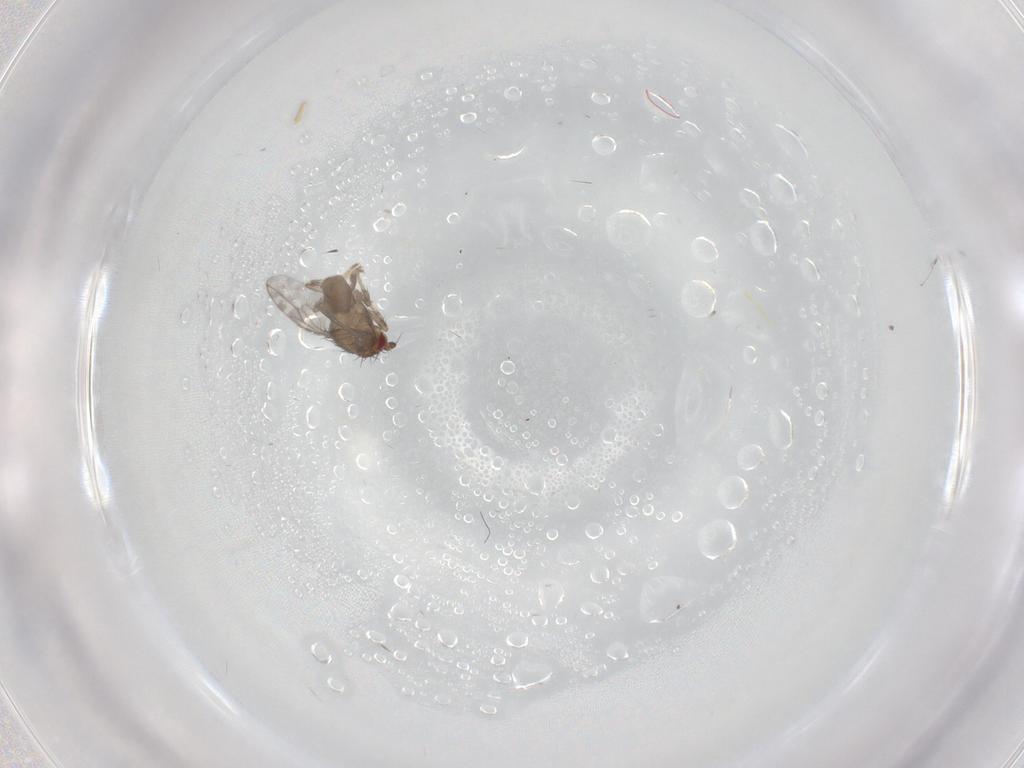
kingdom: Animalia
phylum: Arthropoda
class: Insecta
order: Diptera
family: Sphaeroceridae
